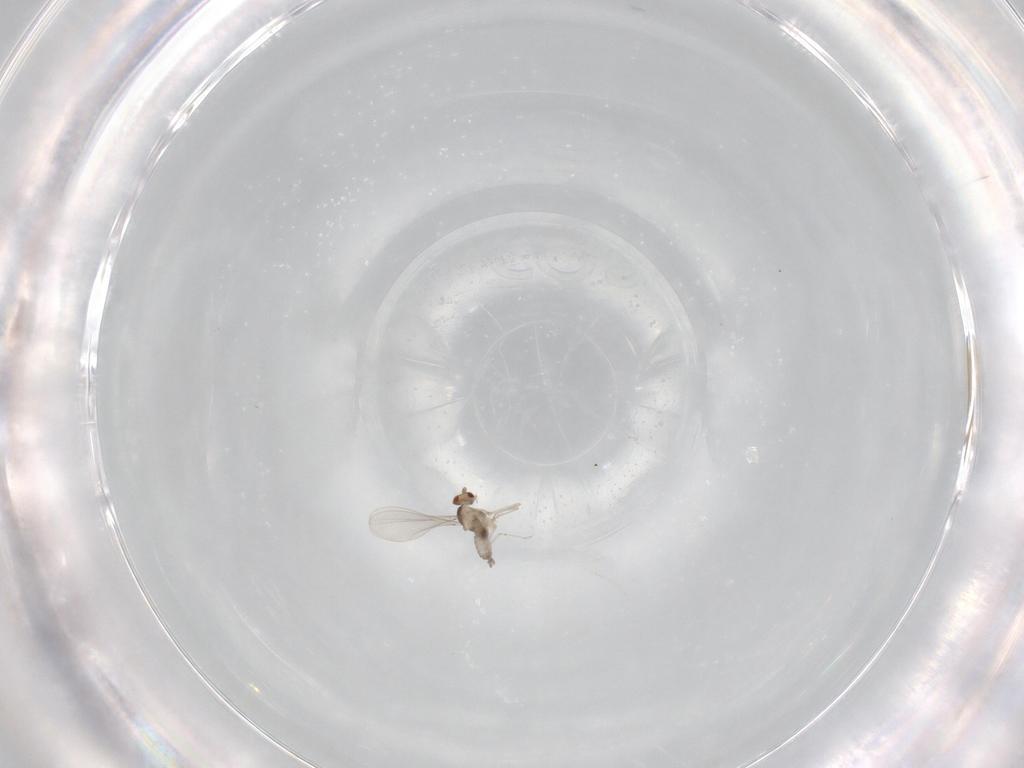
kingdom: Animalia
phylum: Arthropoda
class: Insecta
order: Diptera
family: Cecidomyiidae
